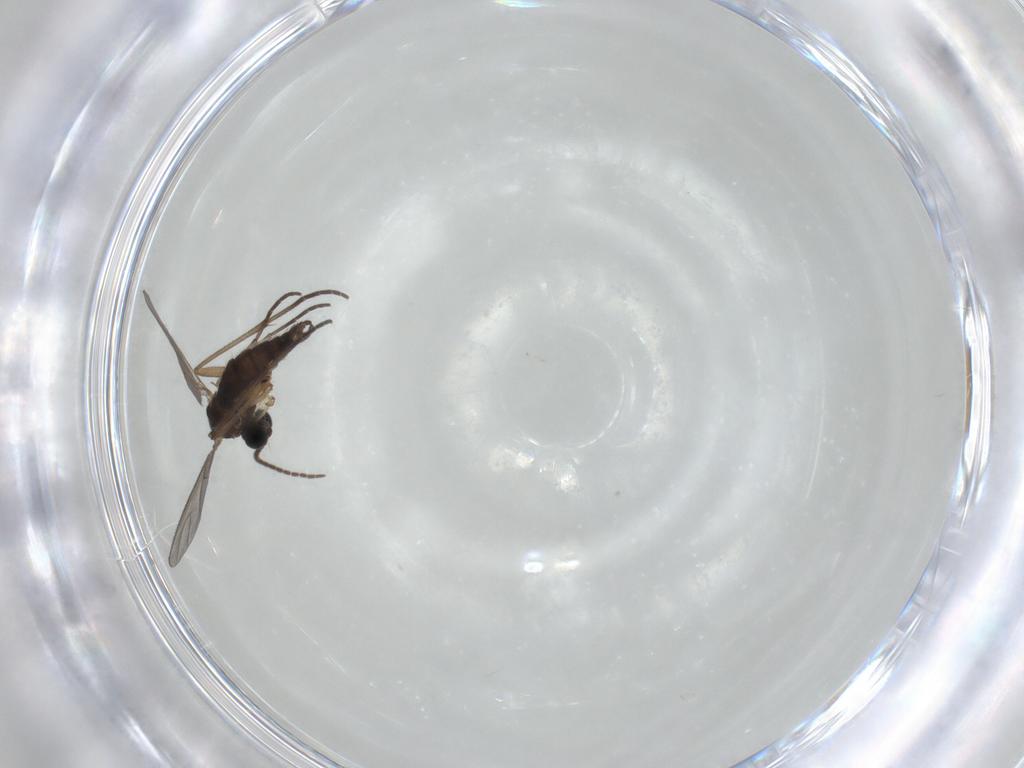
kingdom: Animalia
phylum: Arthropoda
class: Insecta
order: Diptera
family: Sciaridae
